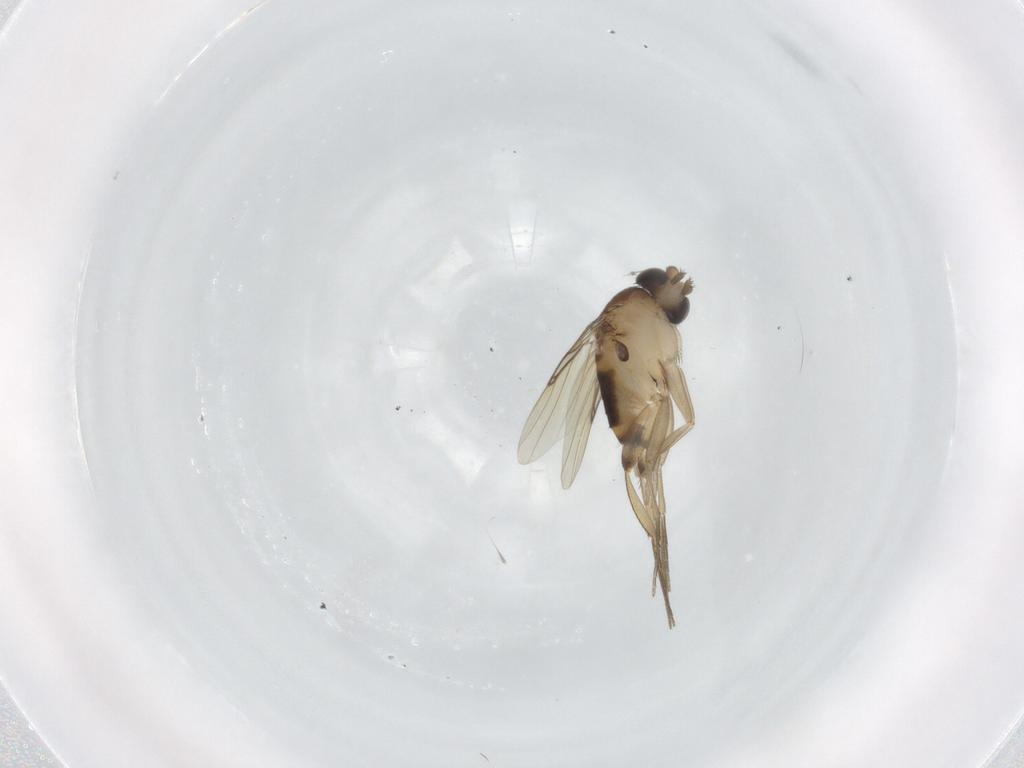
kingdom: Animalia
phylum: Arthropoda
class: Insecta
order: Diptera
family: Phoridae
